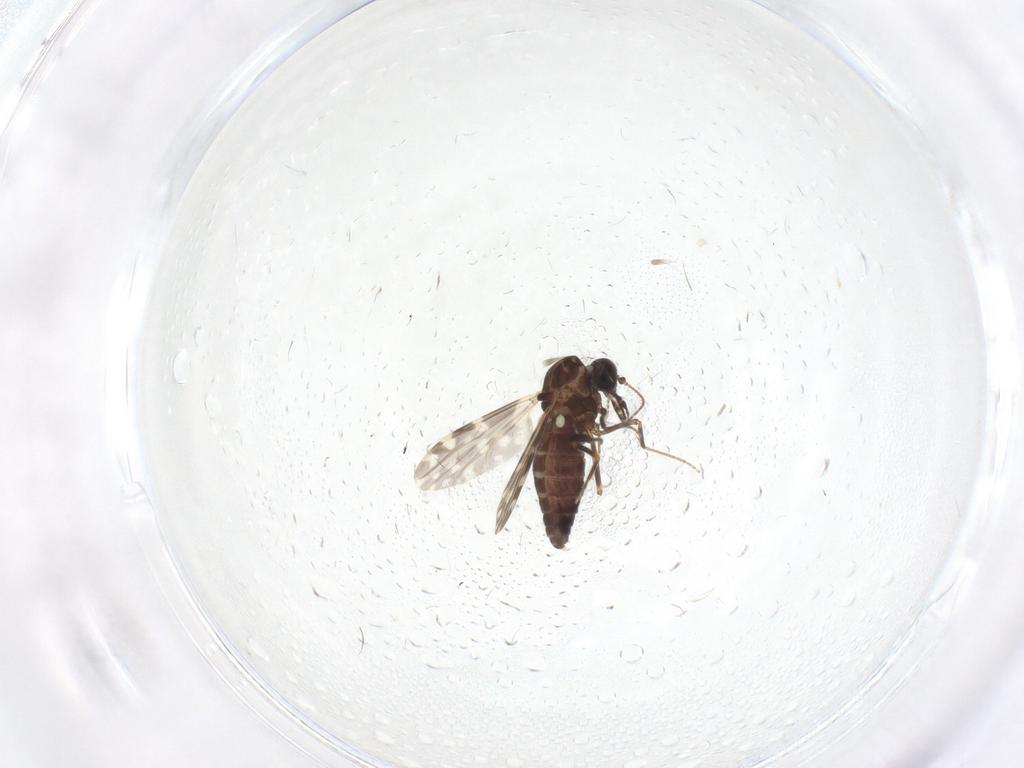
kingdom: Animalia
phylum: Arthropoda
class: Insecta
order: Diptera
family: Ceratopogonidae
